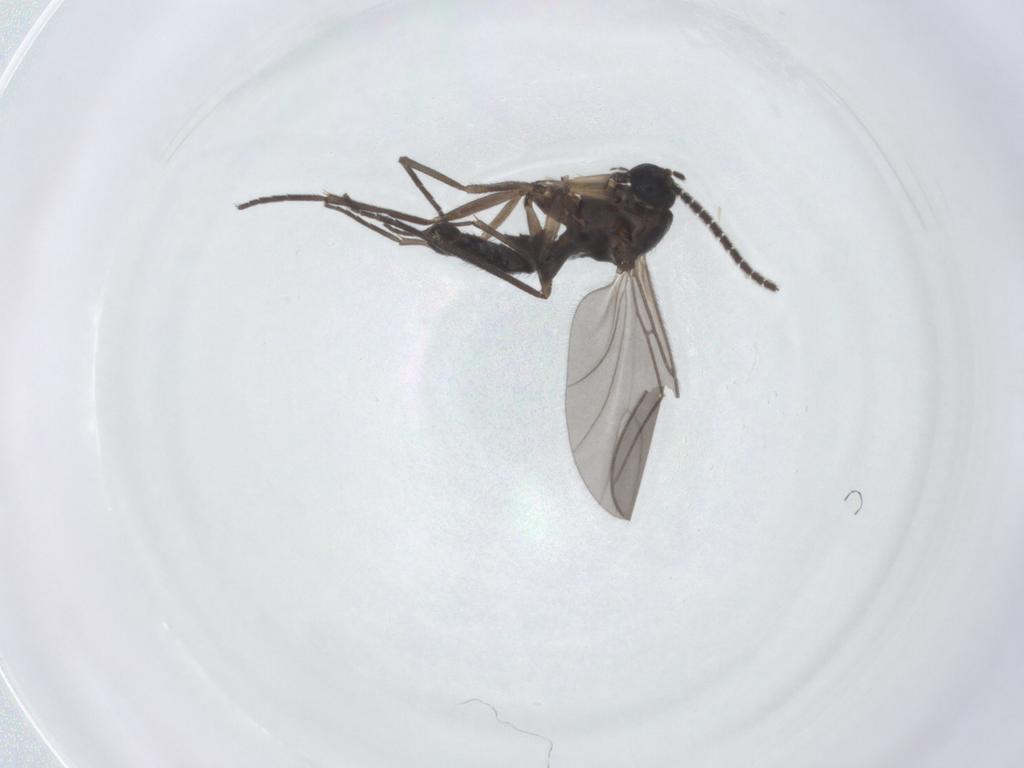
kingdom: Animalia
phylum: Arthropoda
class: Insecta
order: Diptera
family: Sciaridae
